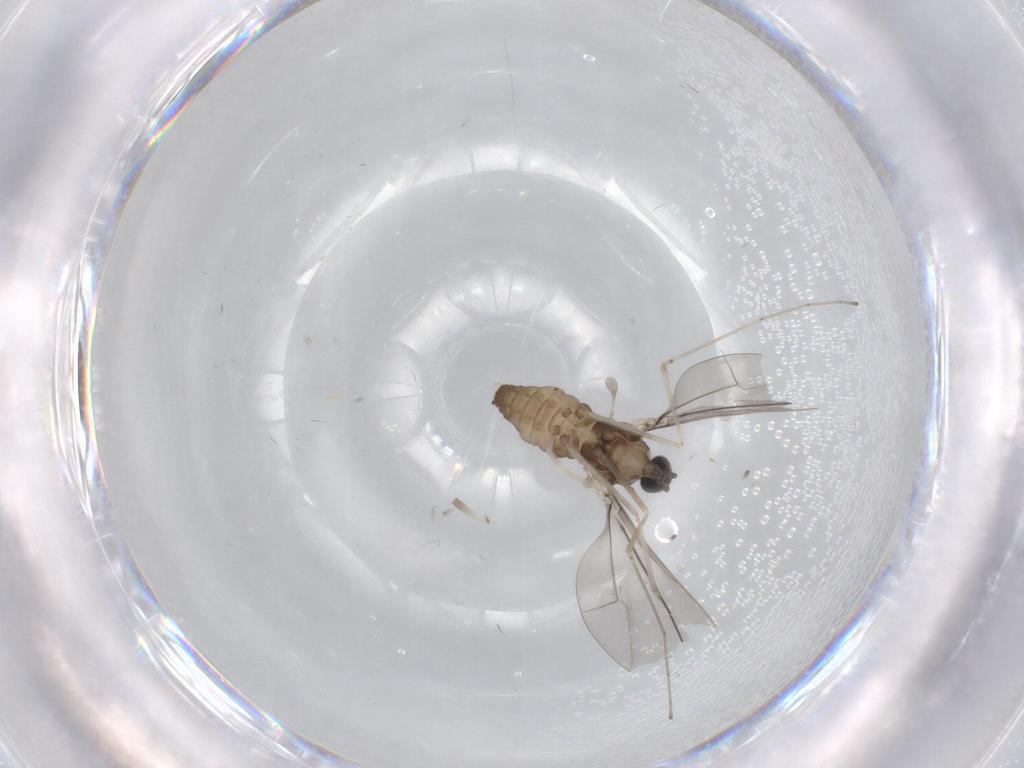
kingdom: Animalia
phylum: Arthropoda
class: Insecta
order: Diptera
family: Cecidomyiidae
